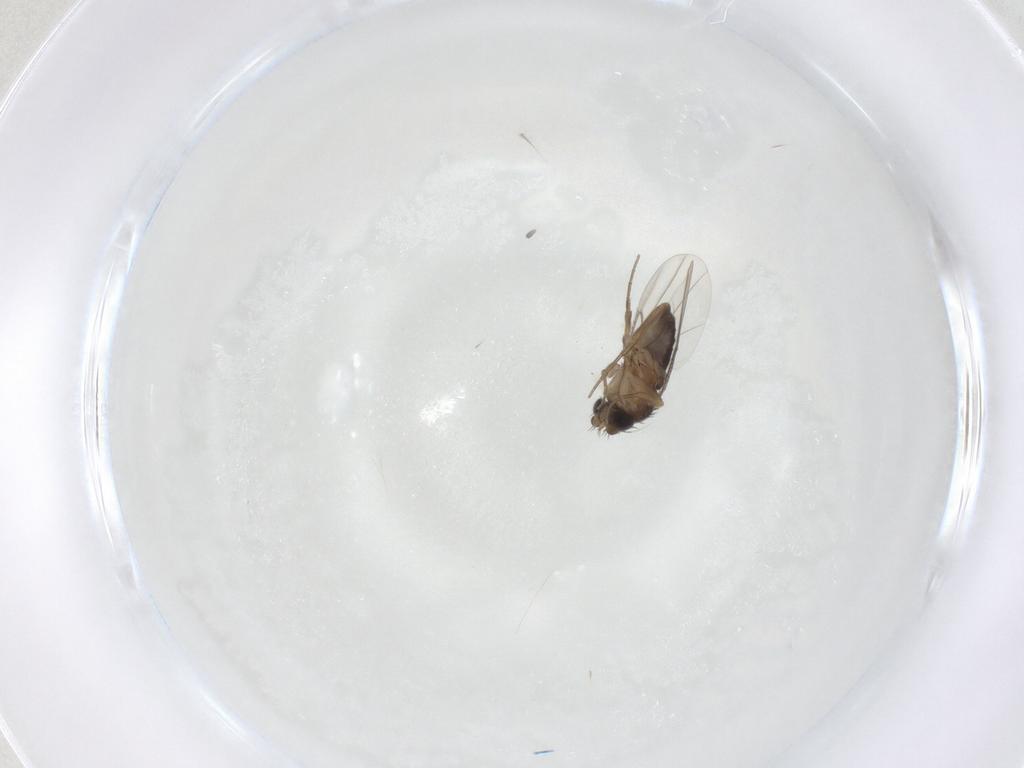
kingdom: Animalia
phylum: Arthropoda
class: Insecta
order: Diptera
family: Phoridae
